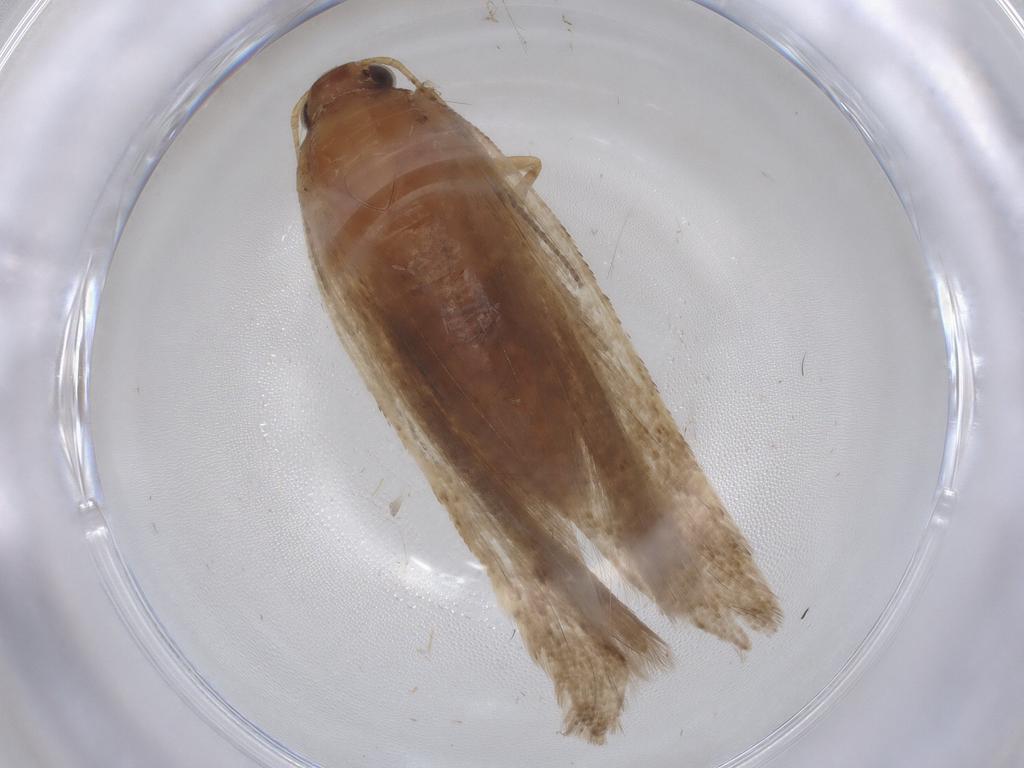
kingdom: Animalia
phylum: Arthropoda
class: Insecta
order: Lepidoptera
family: Gelechiidae
